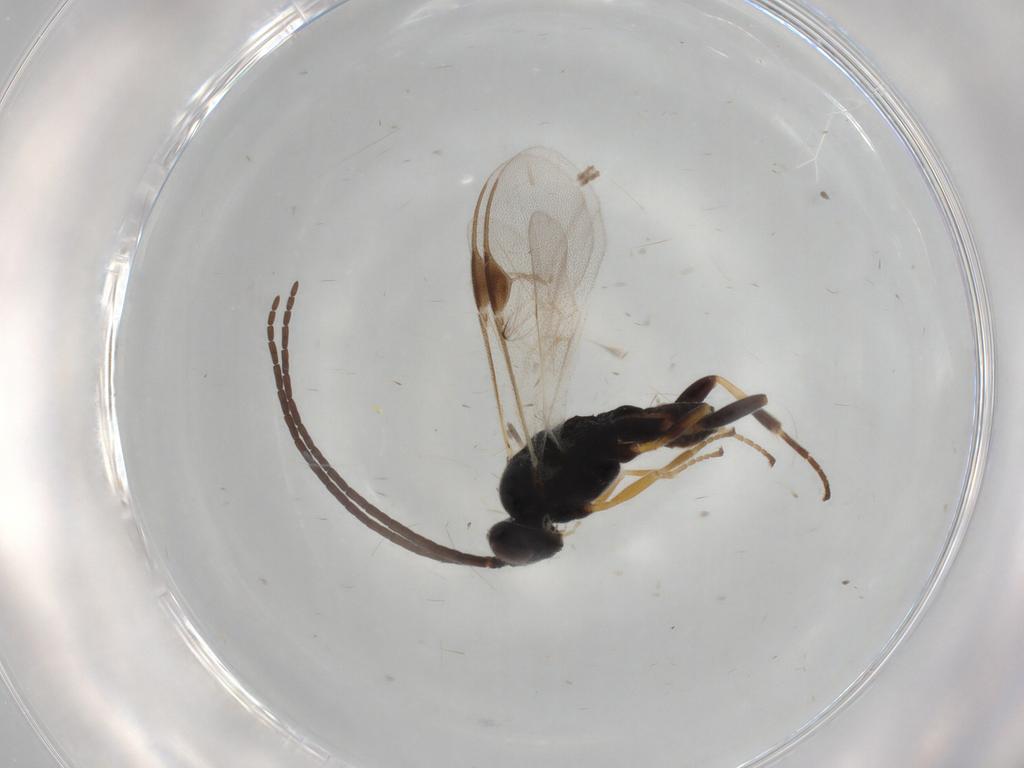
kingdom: Animalia
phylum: Arthropoda
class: Insecta
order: Hymenoptera
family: Braconidae
